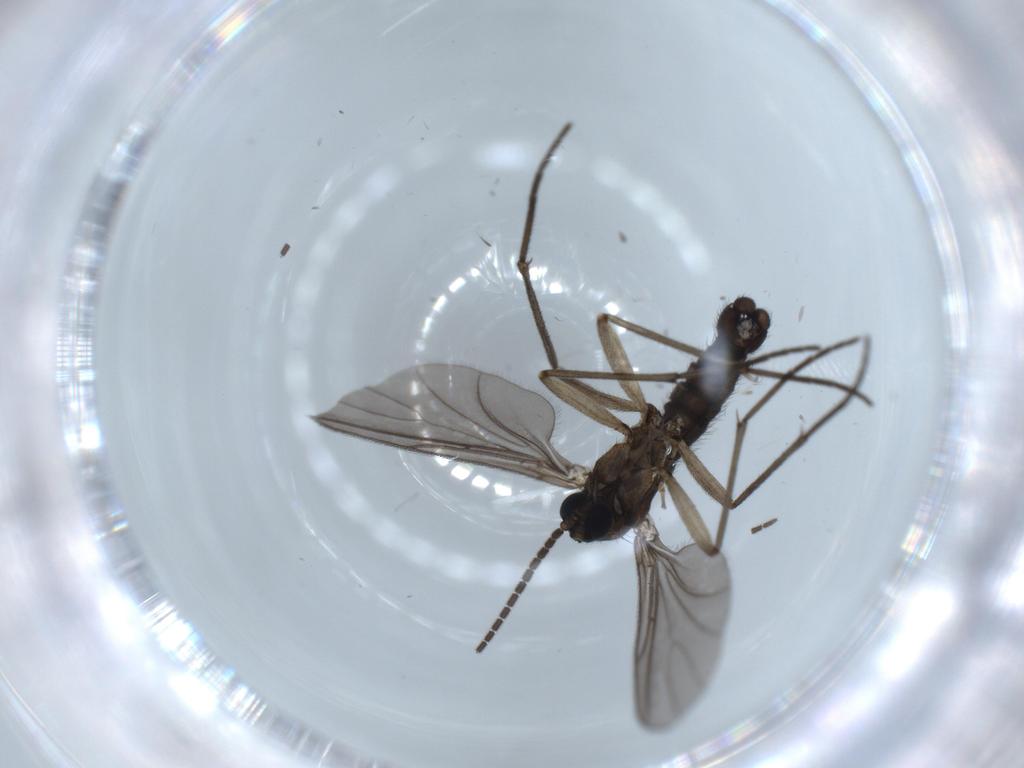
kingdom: Animalia
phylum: Arthropoda
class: Insecta
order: Diptera
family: Sciaridae
